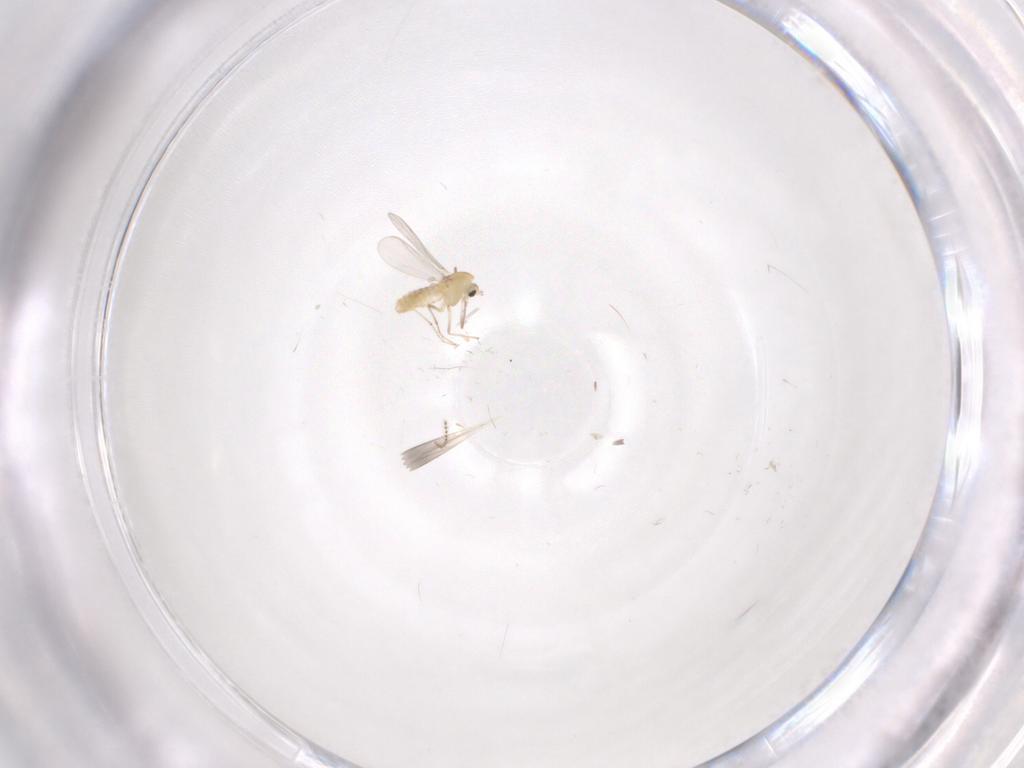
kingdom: Animalia
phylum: Arthropoda
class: Insecta
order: Diptera
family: Chironomidae
